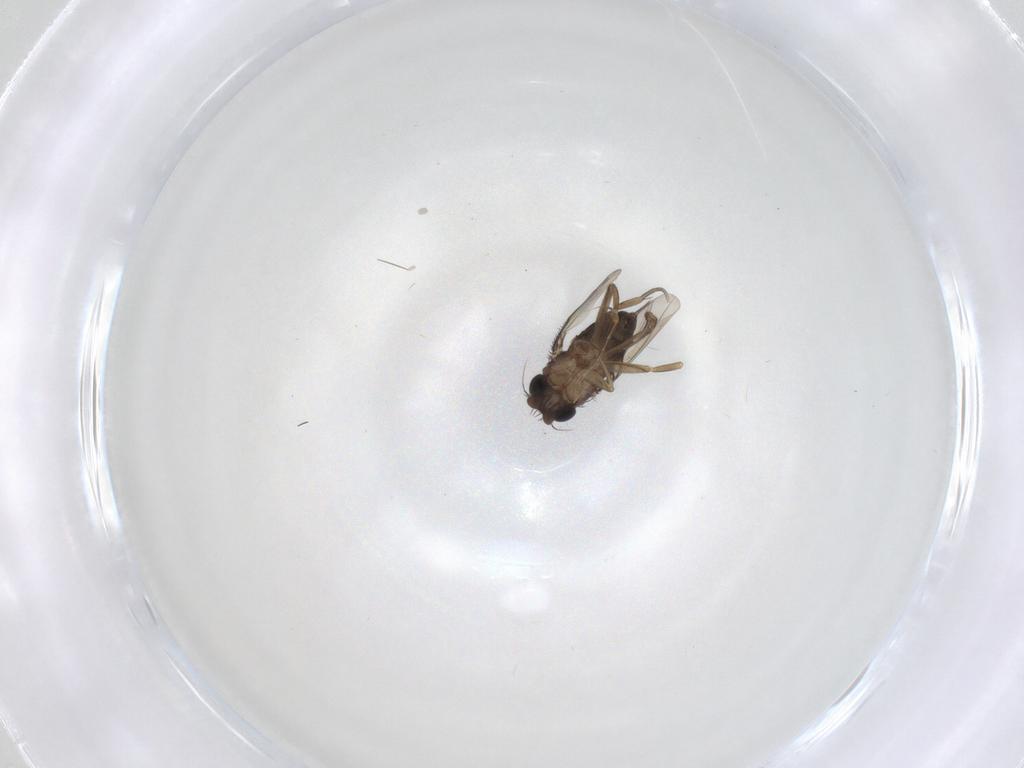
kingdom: Animalia
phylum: Arthropoda
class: Insecta
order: Diptera
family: Phoridae
